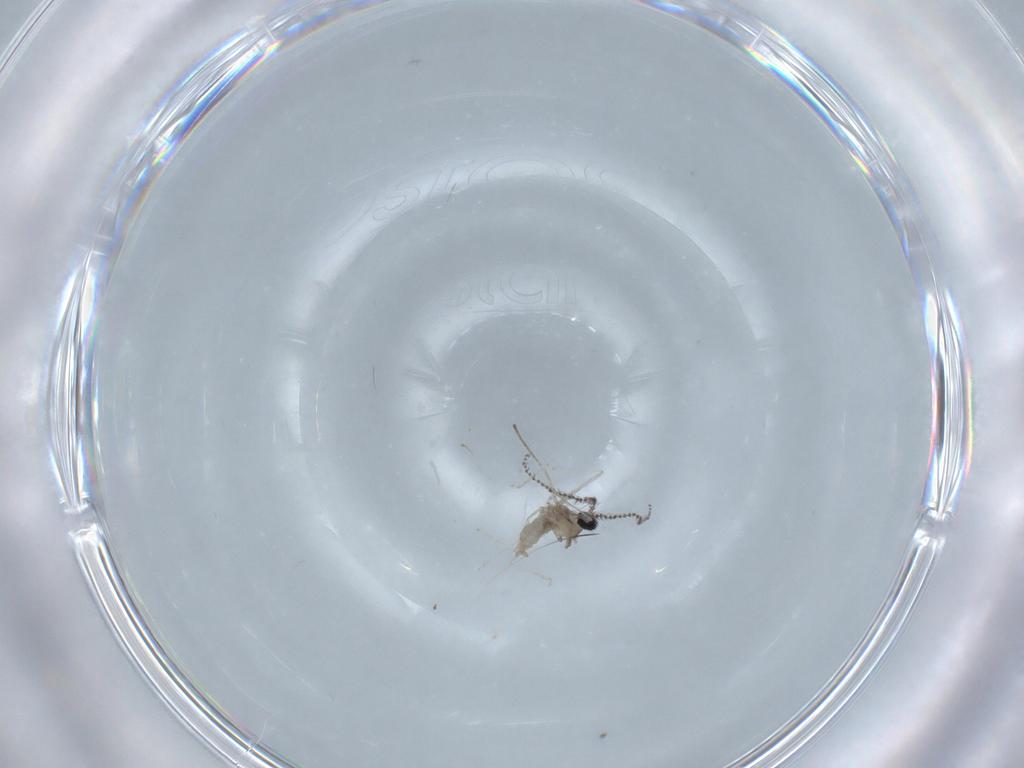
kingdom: Animalia
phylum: Arthropoda
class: Insecta
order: Diptera
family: Cecidomyiidae
